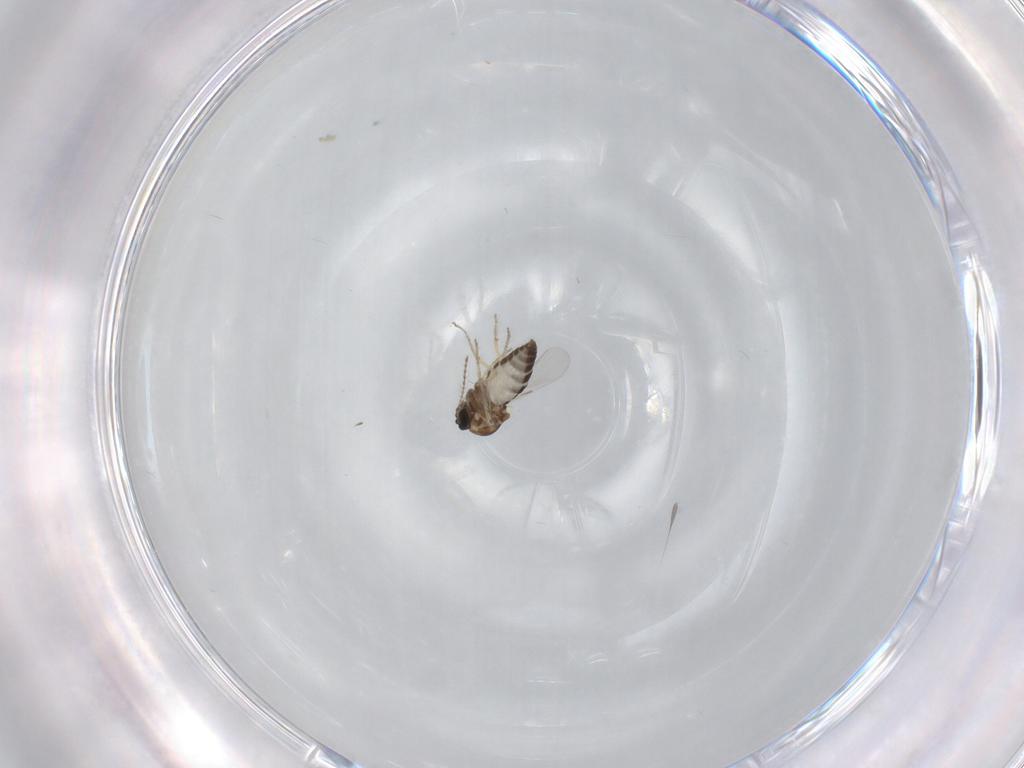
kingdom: Animalia
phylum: Arthropoda
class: Insecta
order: Diptera
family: Ceratopogonidae
